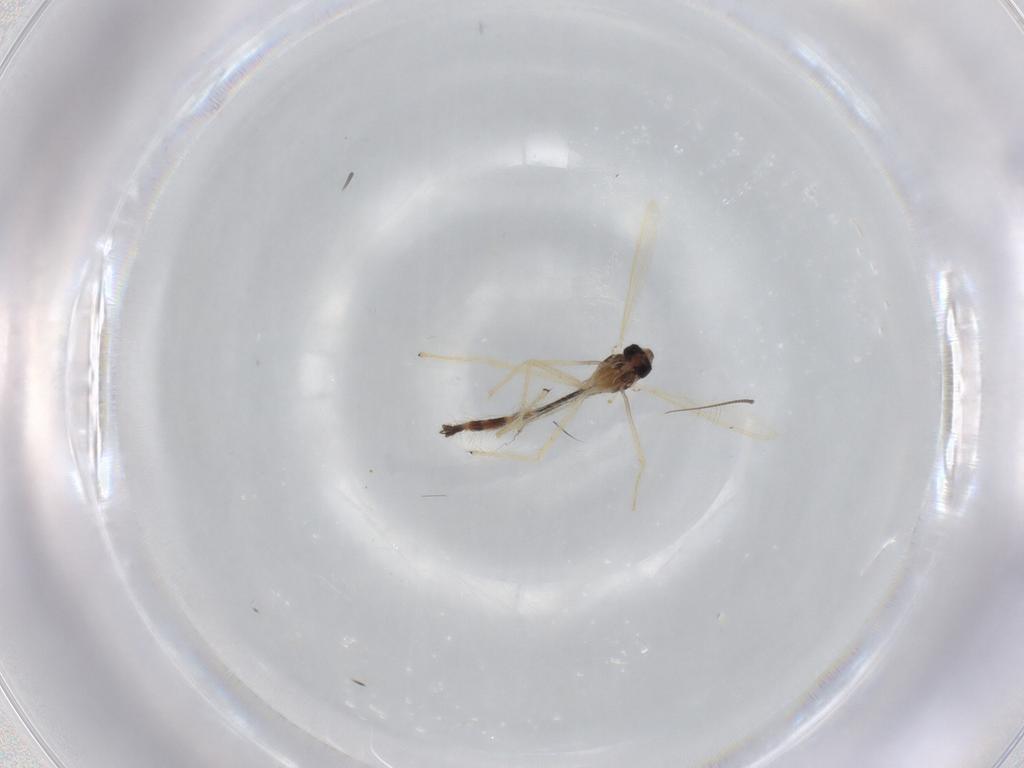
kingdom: Animalia
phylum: Arthropoda
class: Insecta
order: Diptera
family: Chironomidae
